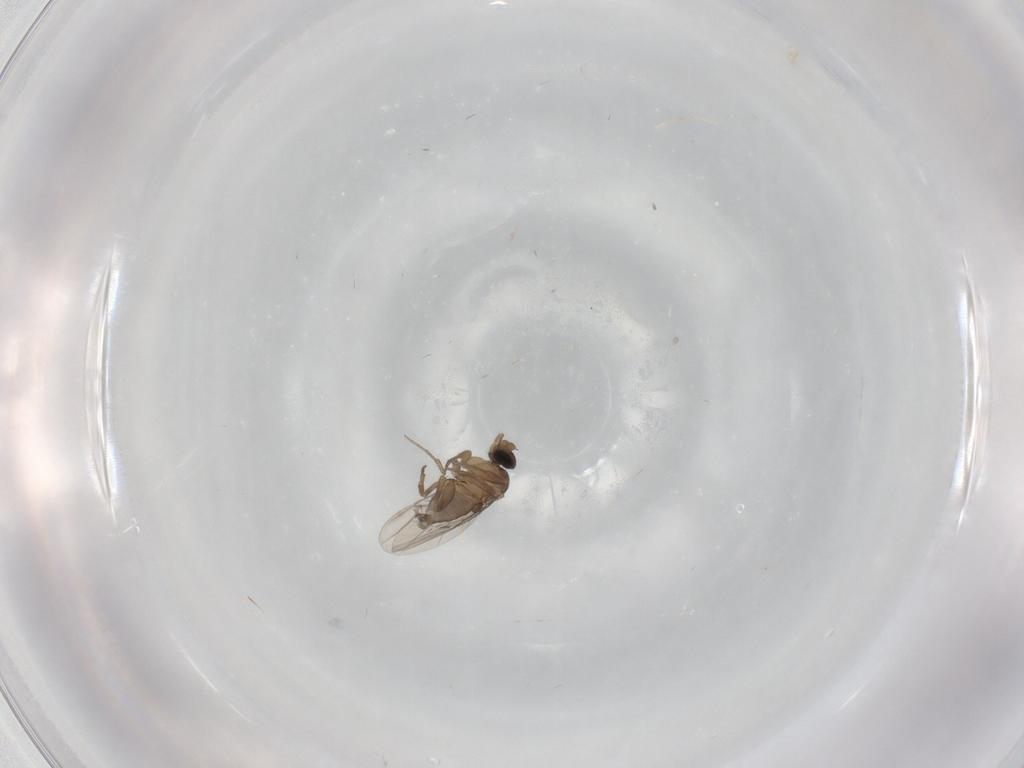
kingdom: Animalia
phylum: Arthropoda
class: Insecta
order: Diptera
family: Phoridae
